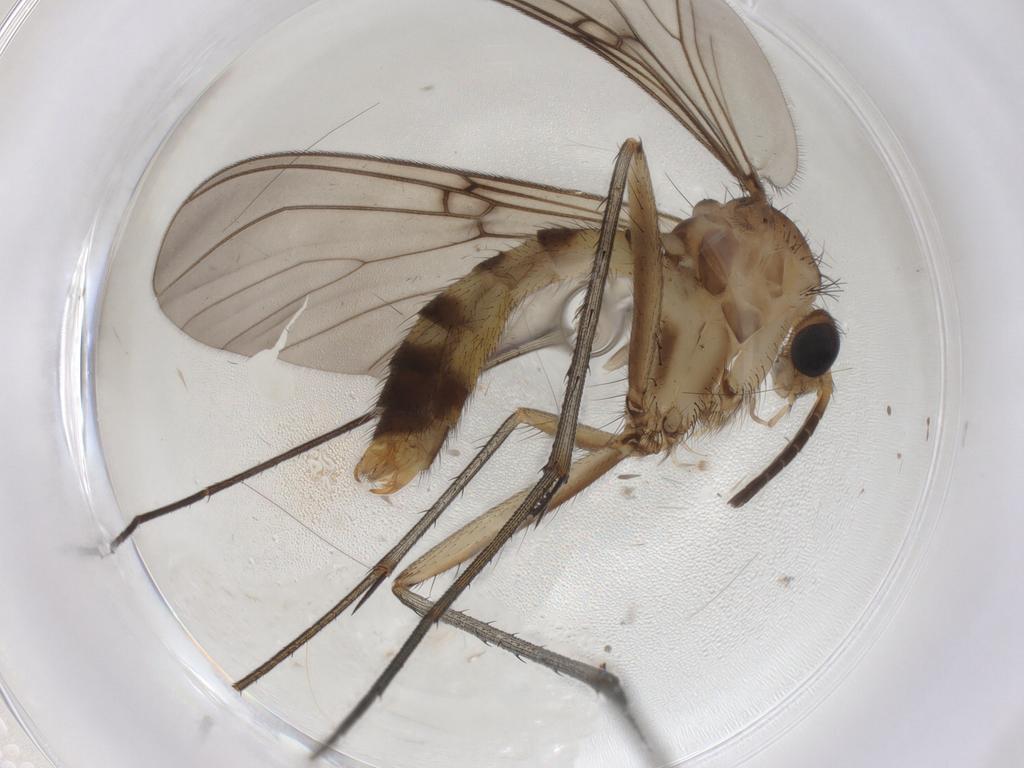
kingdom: Animalia
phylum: Arthropoda
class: Insecta
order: Diptera
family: Mycetophilidae
